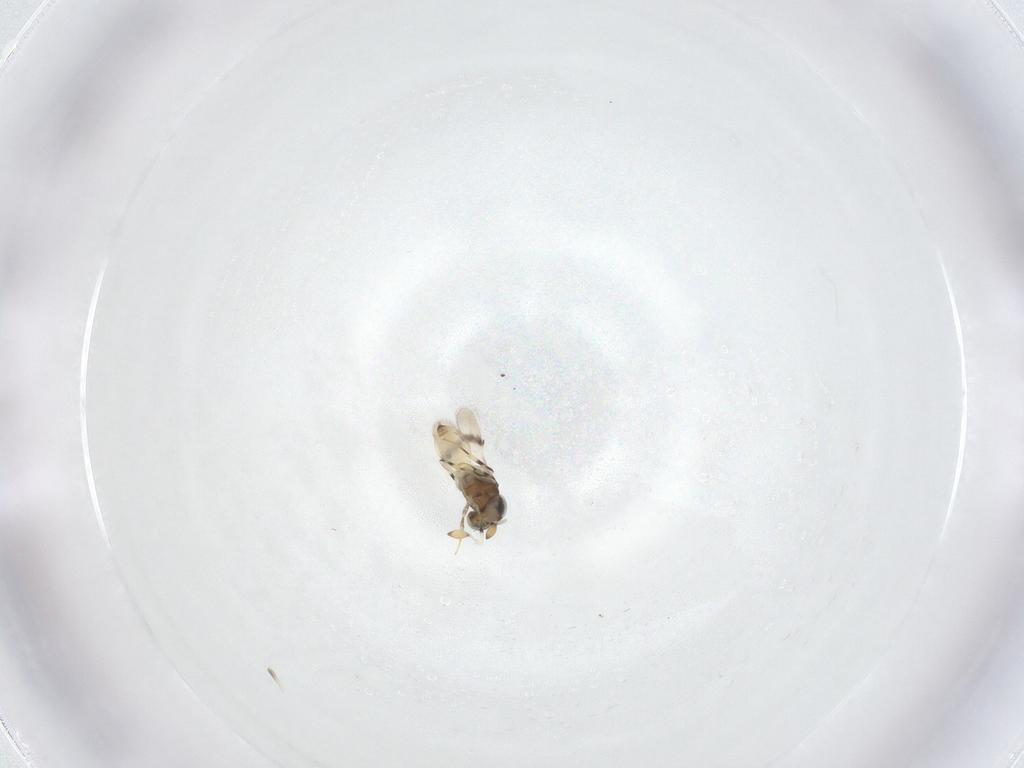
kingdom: Animalia
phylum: Arthropoda
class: Insecta
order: Hymenoptera
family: Scelionidae
